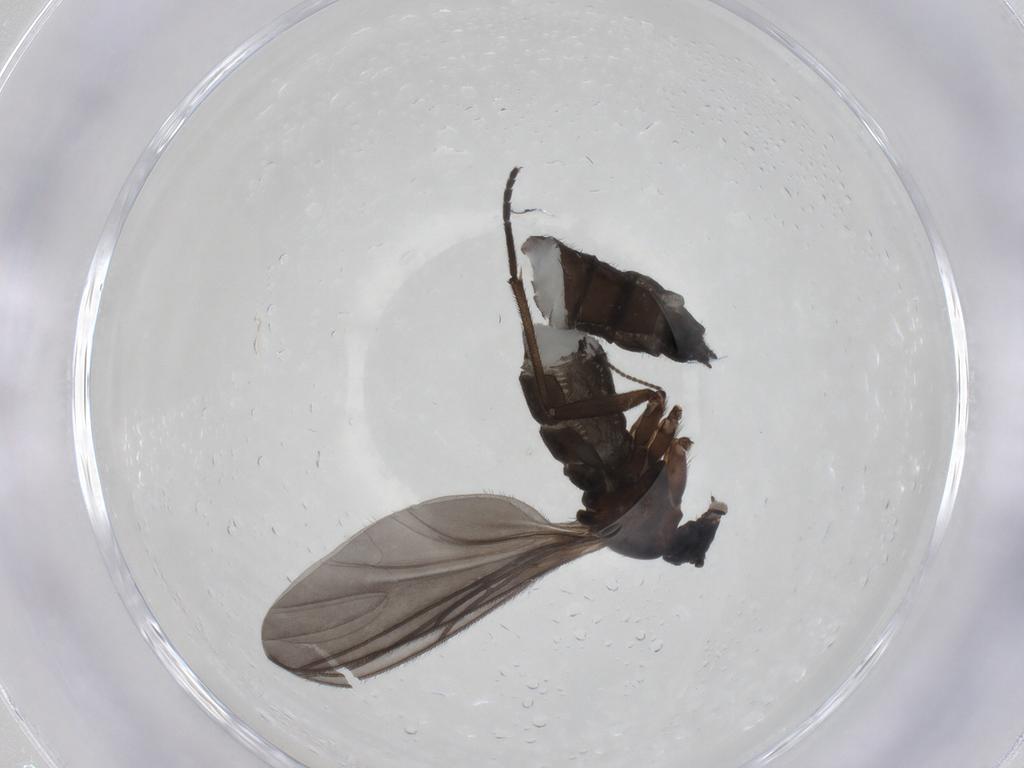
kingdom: Animalia
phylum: Arthropoda
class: Insecta
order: Diptera
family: Sciaridae
